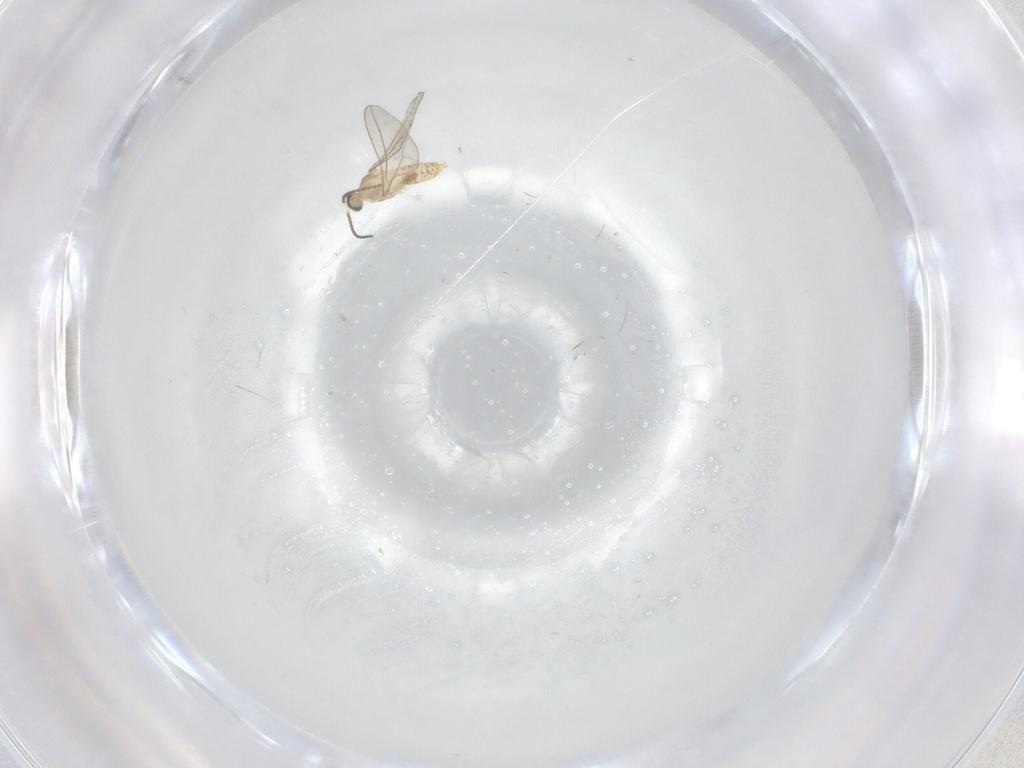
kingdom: Animalia
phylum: Arthropoda
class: Insecta
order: Diptera
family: Cecidomyiidae
